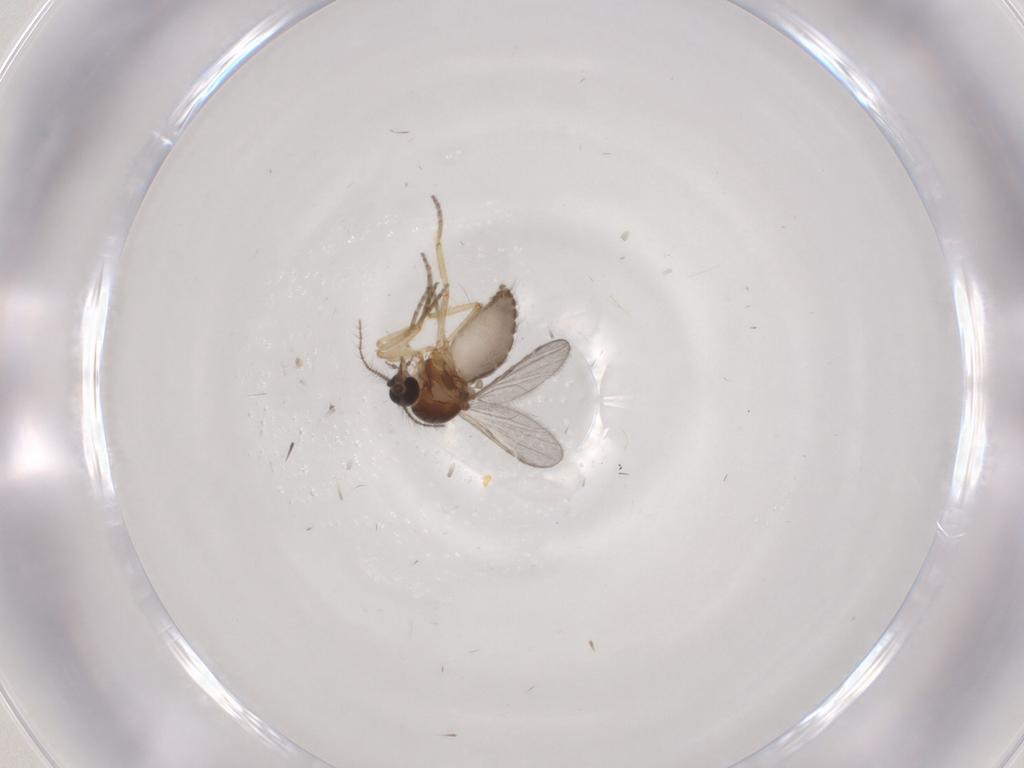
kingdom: Animalia
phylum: Arthropoda
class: Insecta
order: Diptera
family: Ceratopogonidae
